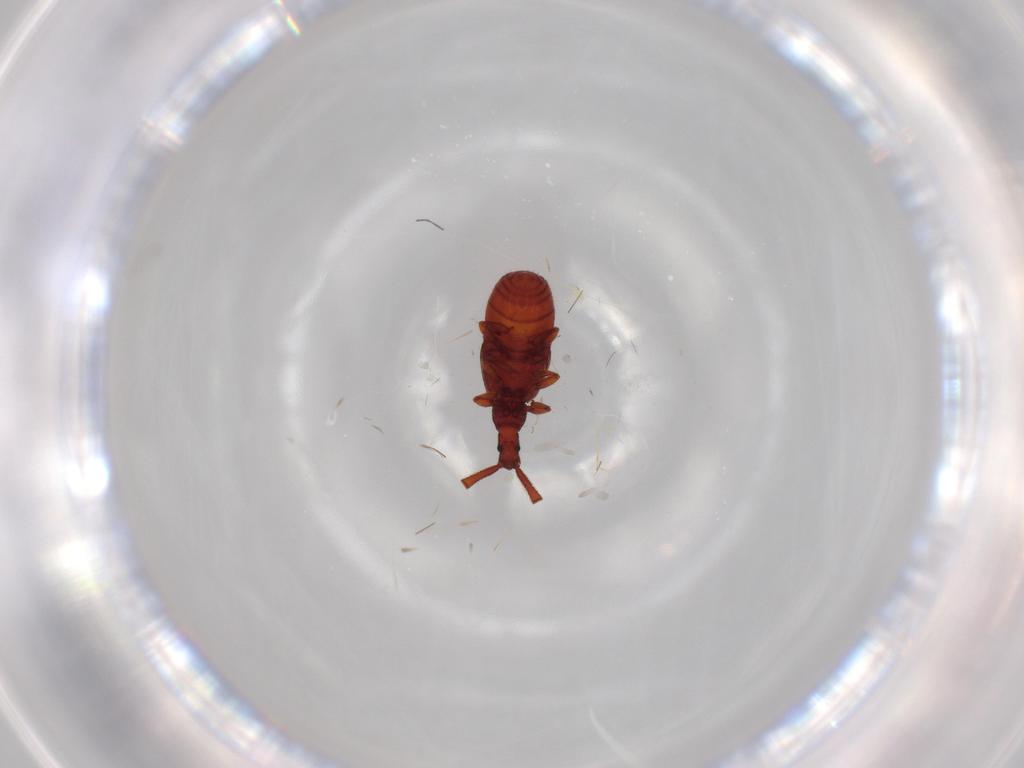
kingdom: Animalia
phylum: Arthropoda
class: Insecta
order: Coleoptera
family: Staphylinidae
